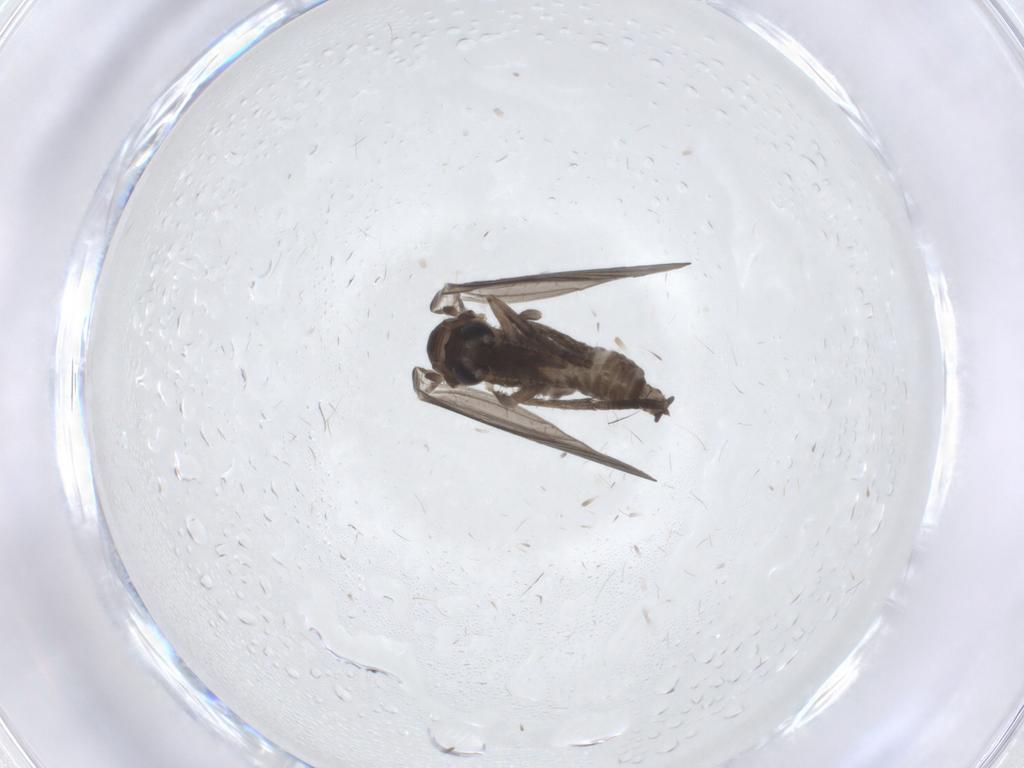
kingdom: Animalia
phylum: Arthropoda
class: Insecta
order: Diptera
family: Psychodidae
